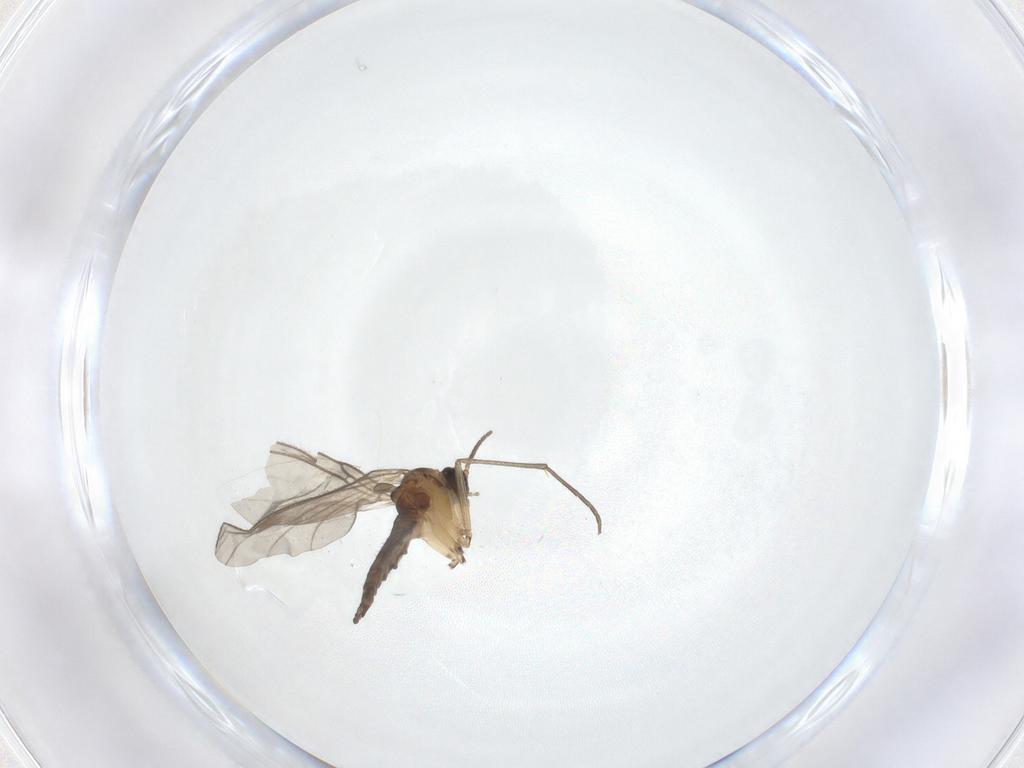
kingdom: Animalia
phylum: Arthropoda
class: Insecta
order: Diptera
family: Sciaridae
